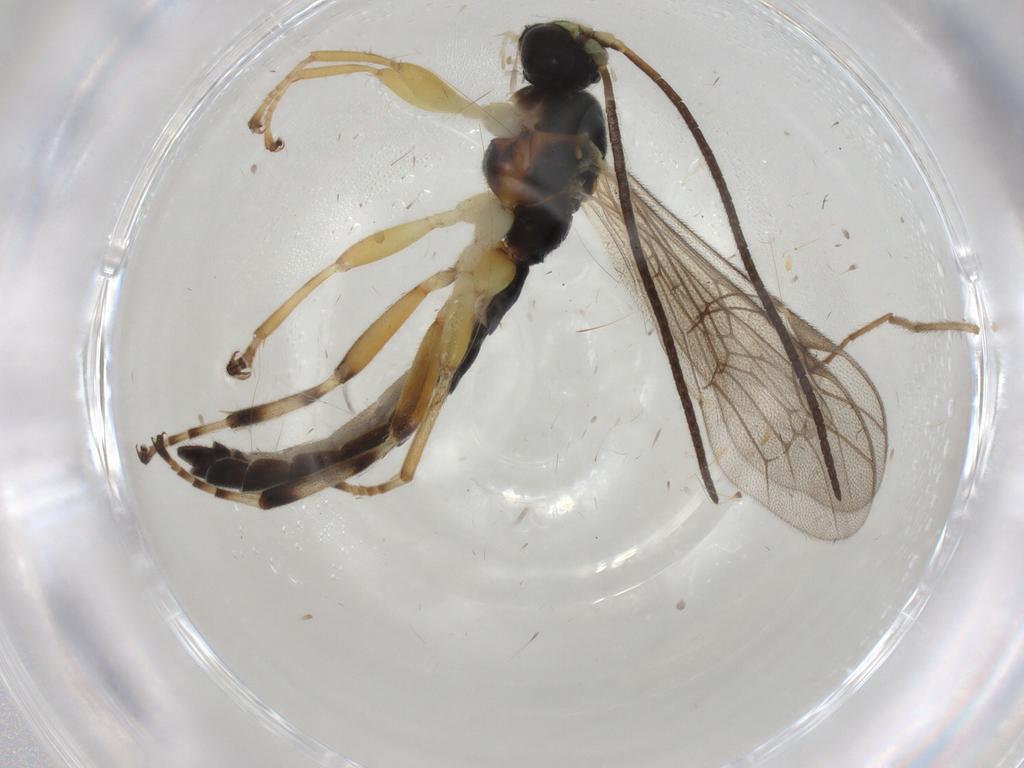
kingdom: Animalia
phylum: Arthropoda
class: Insecta
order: Hymenoptera
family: Ichneumonidae
